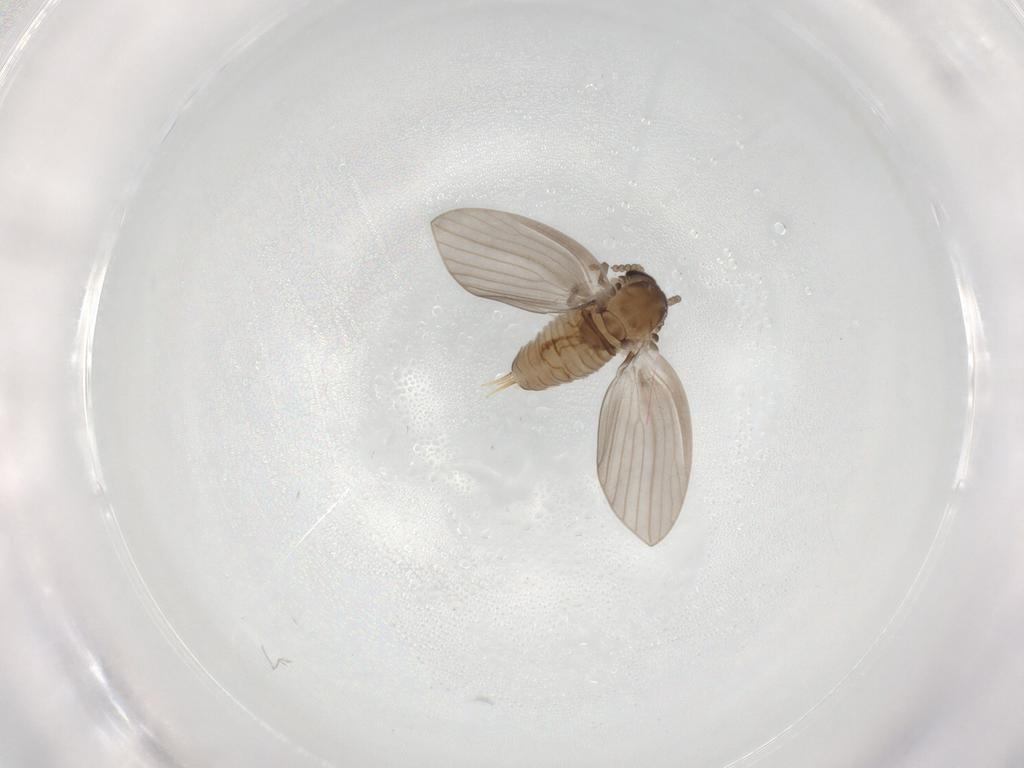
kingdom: Animalia
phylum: Arthropoda
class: Insecta
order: Diptera
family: Psychodidae
